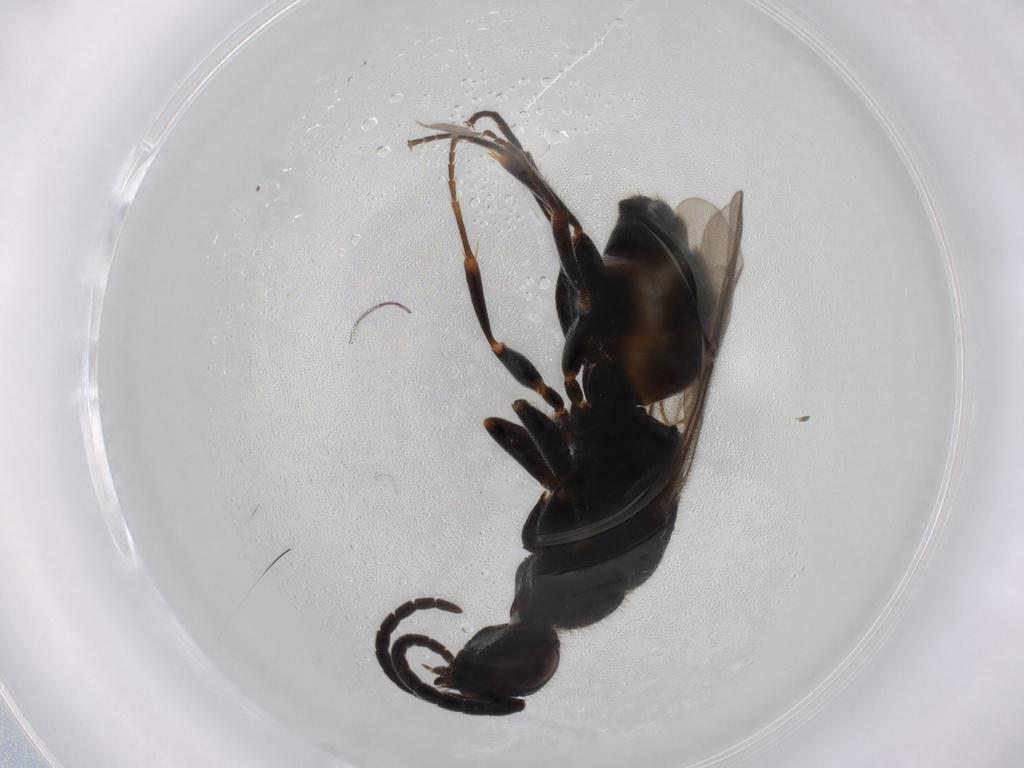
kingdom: Animalia
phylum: Arthropoda
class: Insecta
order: Hymenoptera
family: Chrysididae
